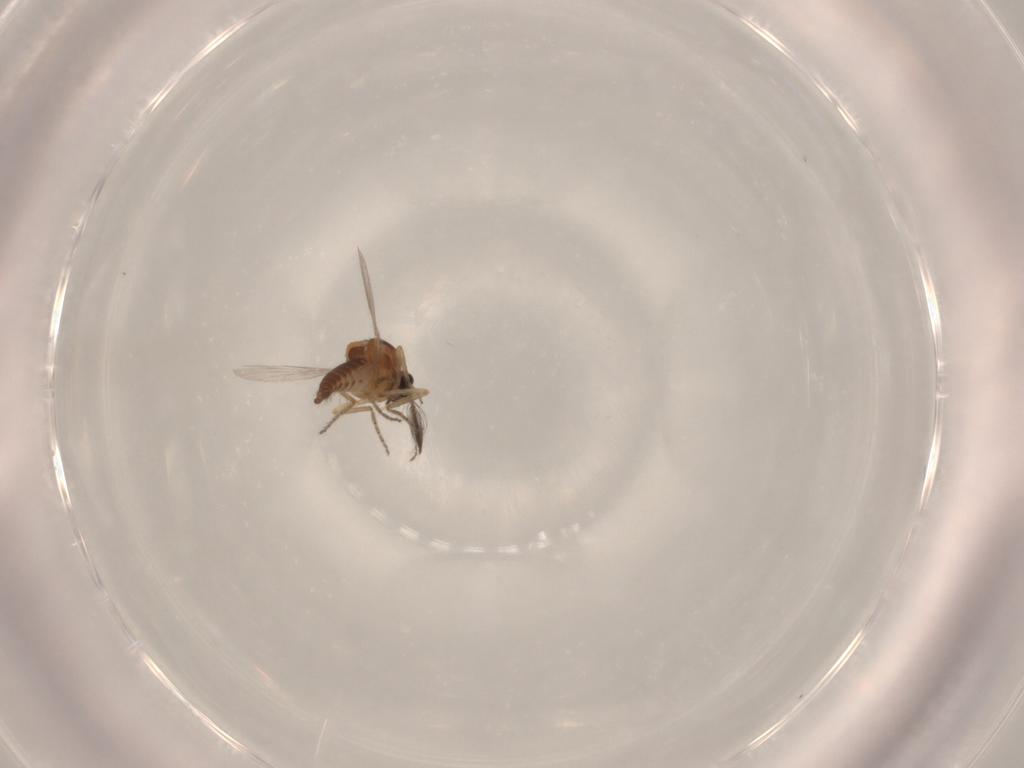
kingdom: Animalia
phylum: Arthropoda
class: Insecta
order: Diptera
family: Ceratopogonidae
